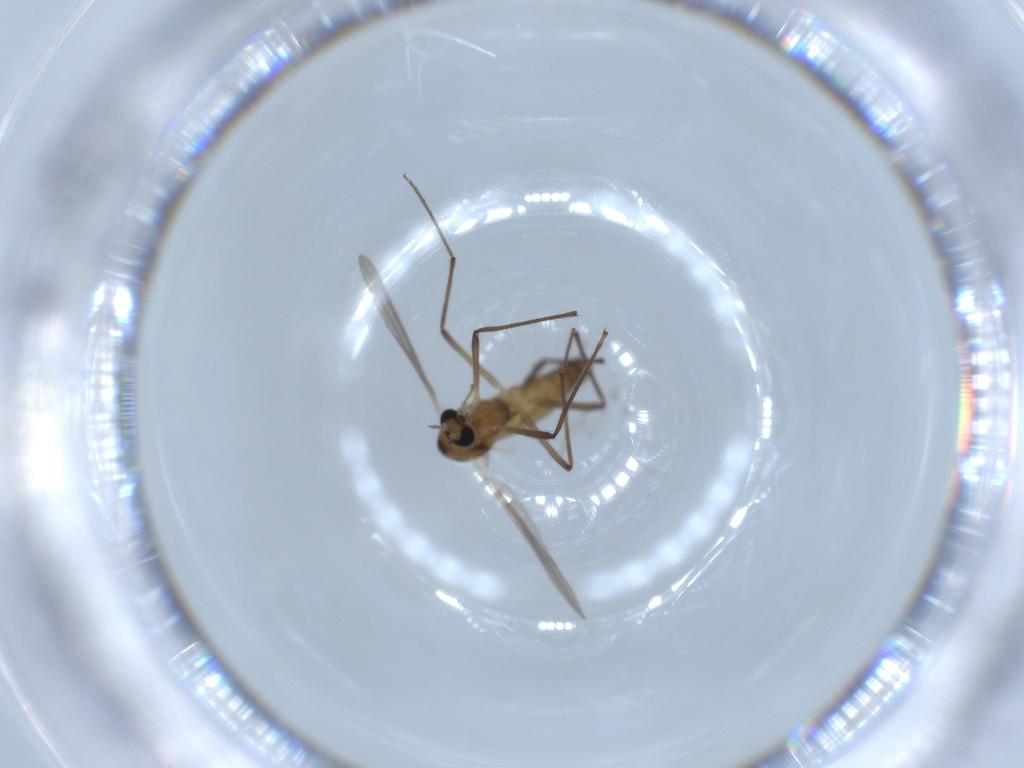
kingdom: Animalia
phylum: Arthropoda
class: Insecta
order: Diptera
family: Chironomidae
